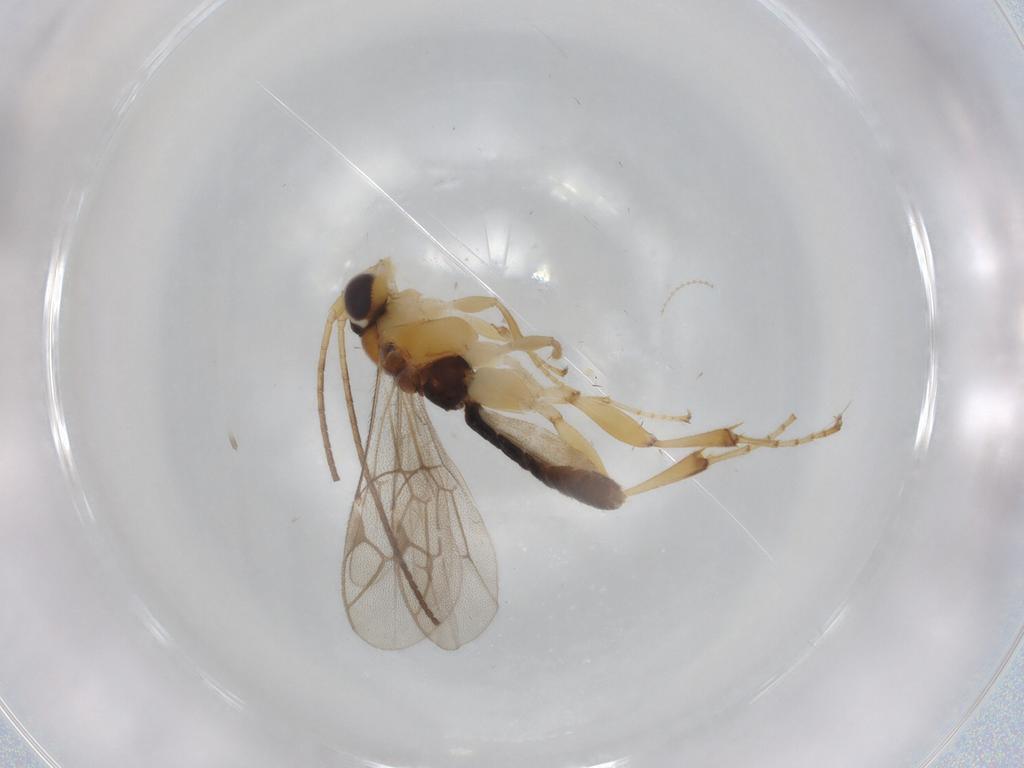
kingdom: Animalia
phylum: Arthropoda
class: Insecta
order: Hymenoptera
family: Ichneumonidae
